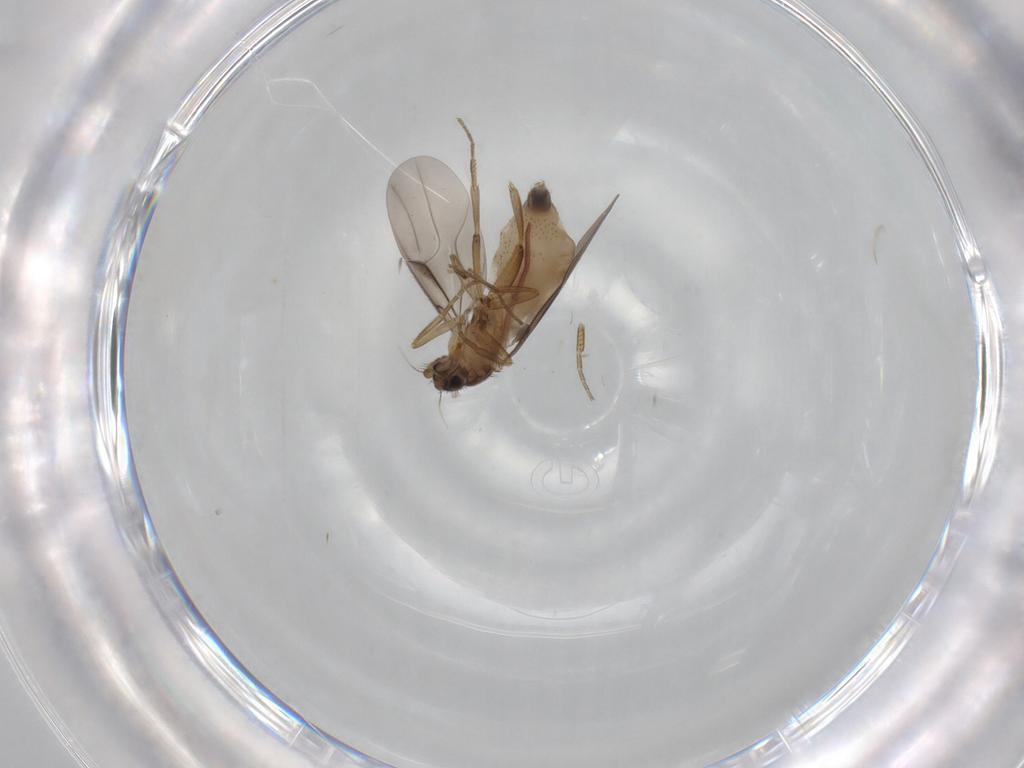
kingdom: Animalia
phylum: Arthropoda
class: Insecta
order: Diptera
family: Phoridae
